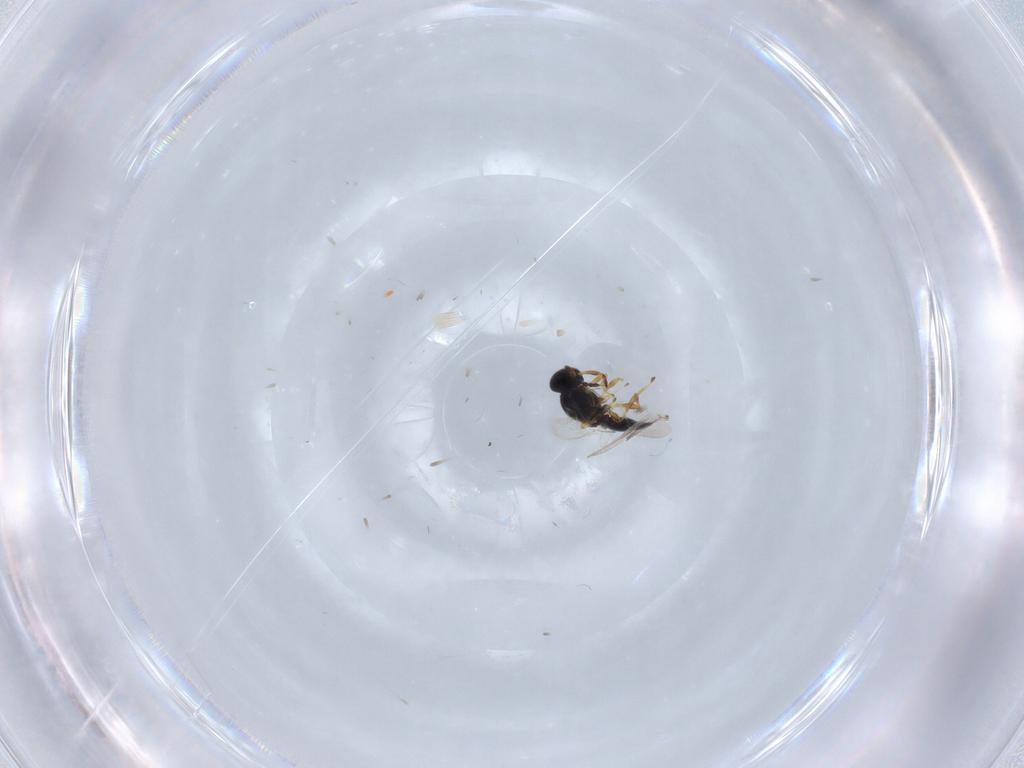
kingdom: Animalia
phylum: Arthropoda
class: Insecta
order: Hymenoptera
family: Platygastridae
